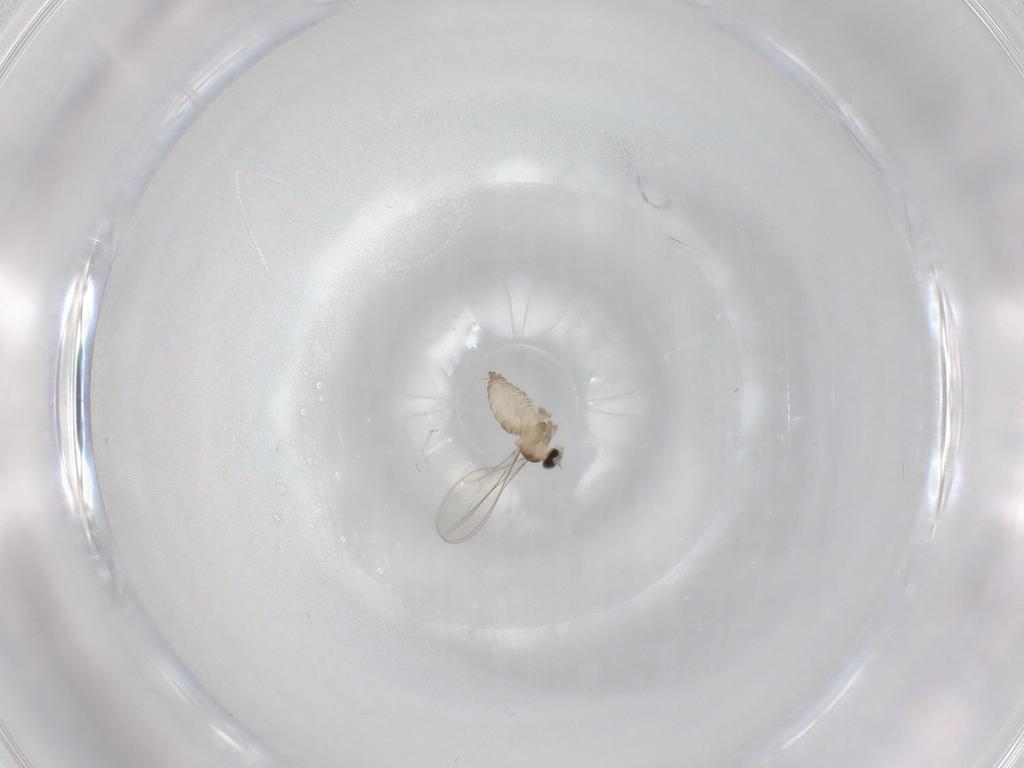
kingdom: Animalia
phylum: Arthropoda
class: Insecta
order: Diptera
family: Cecidomyiidae
